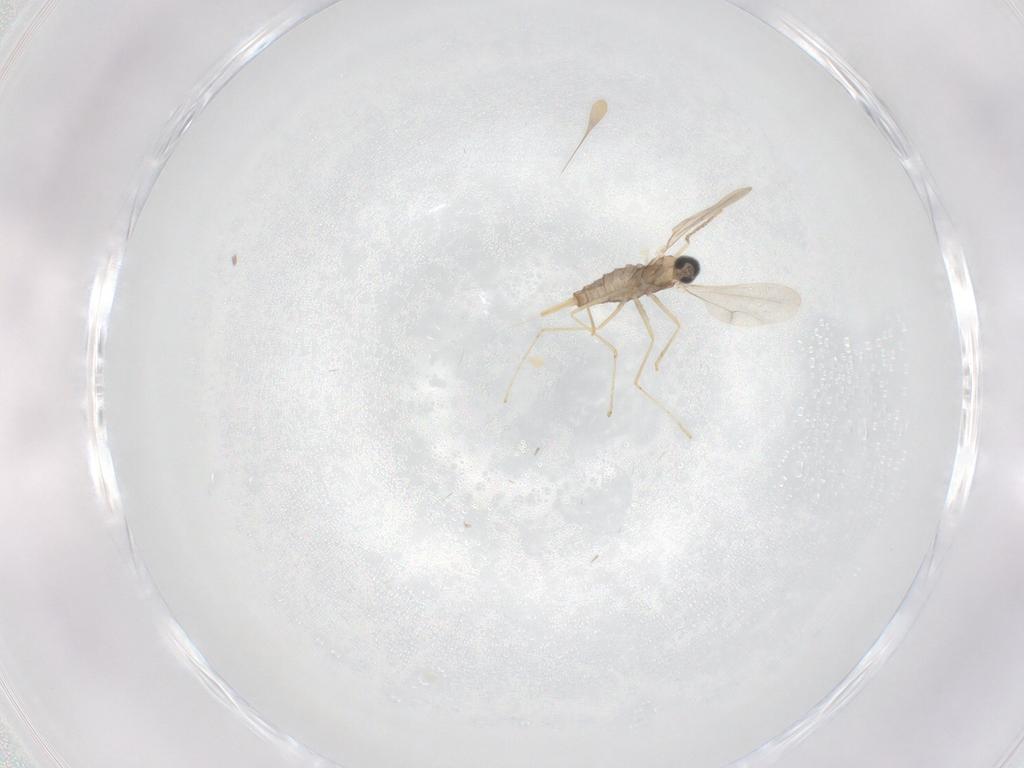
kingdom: Animalia
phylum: Arthropoda
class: Insecta
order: Diptera
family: Cecidomyiidae
